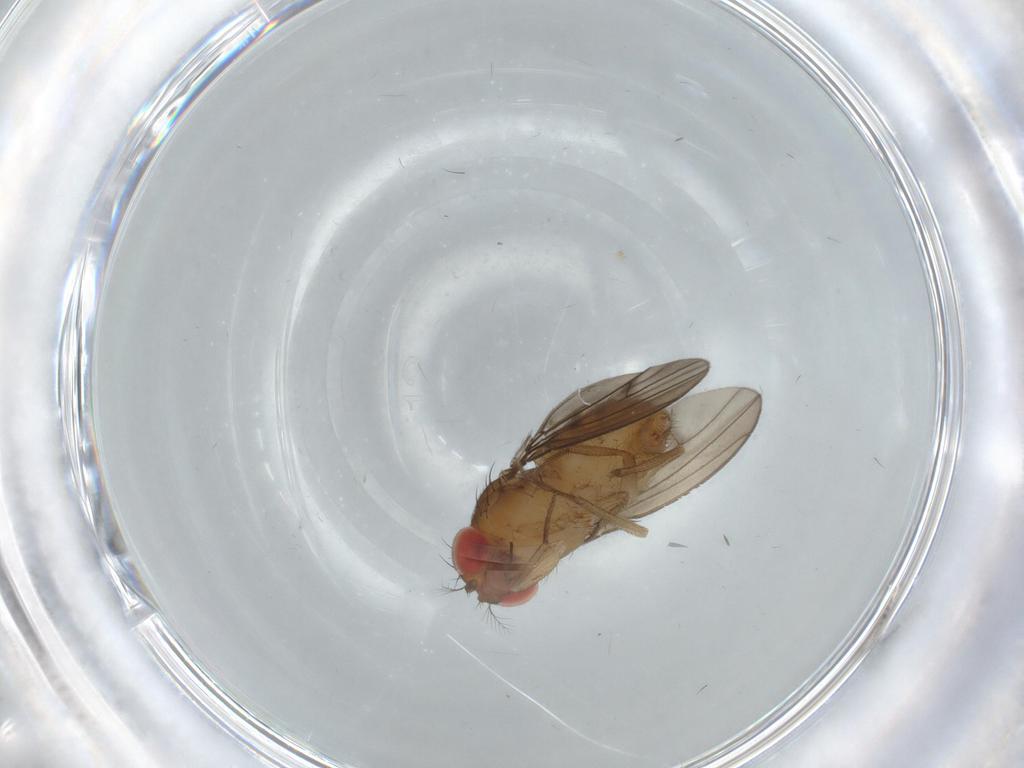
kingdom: Animalia
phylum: Arthropoda
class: Insecta
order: Diptera
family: Drosophilidae
